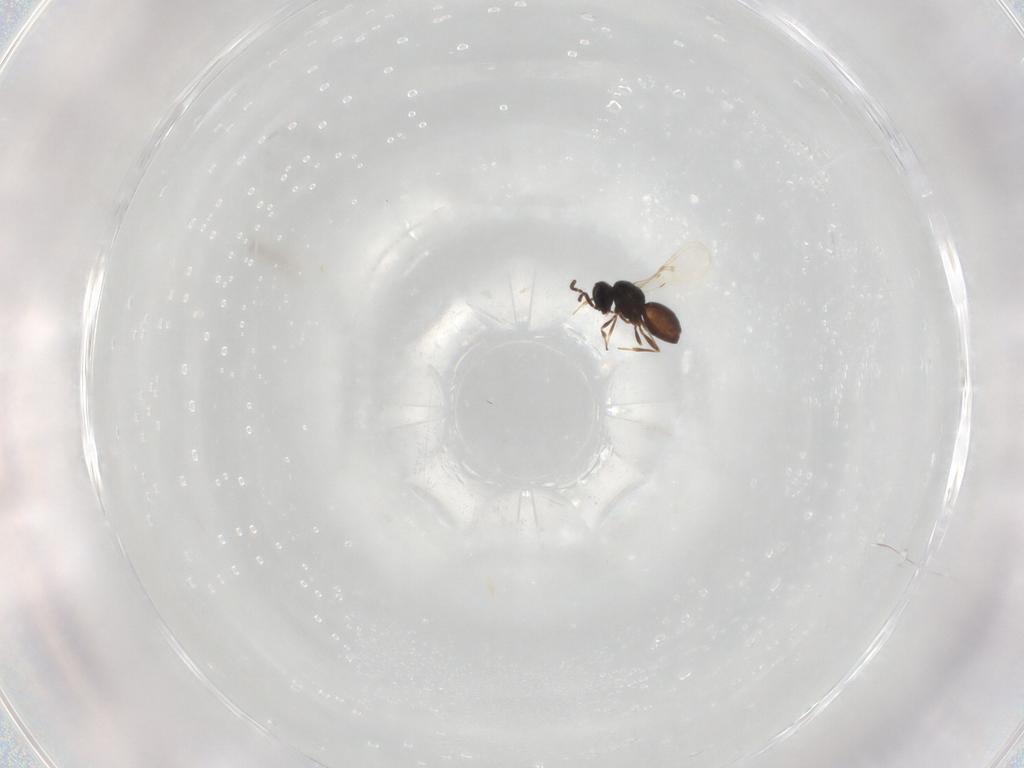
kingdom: Animalia
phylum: Arthropoda
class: Insecta
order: Hymenoptera
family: Scelionidae
